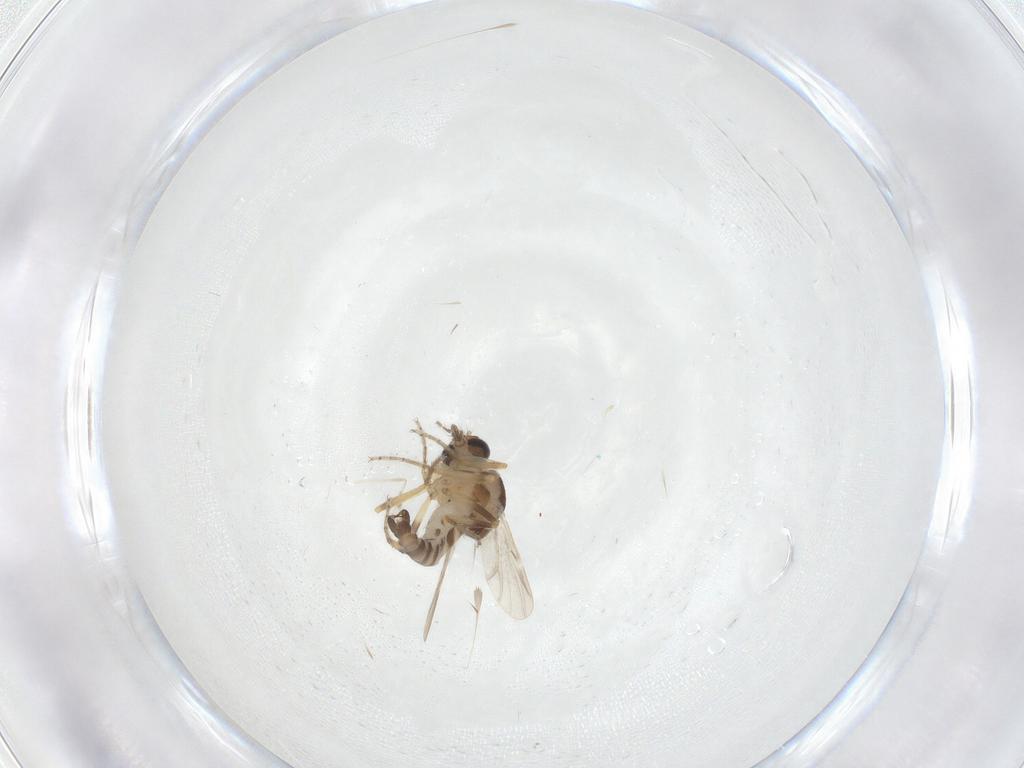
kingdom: Animalia
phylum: Arthropoda
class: Insecta
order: Diptera
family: Ceratopogonidae
